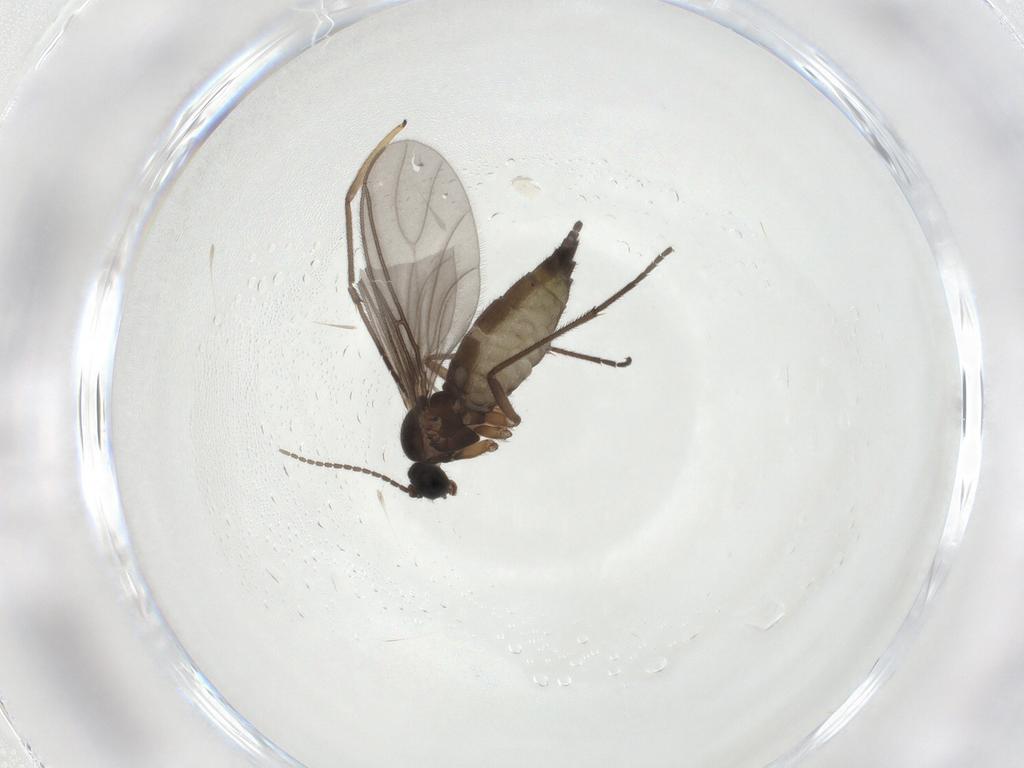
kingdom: Animalia
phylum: Arthropoda
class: Insecta
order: Diptera
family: Sciaridae
